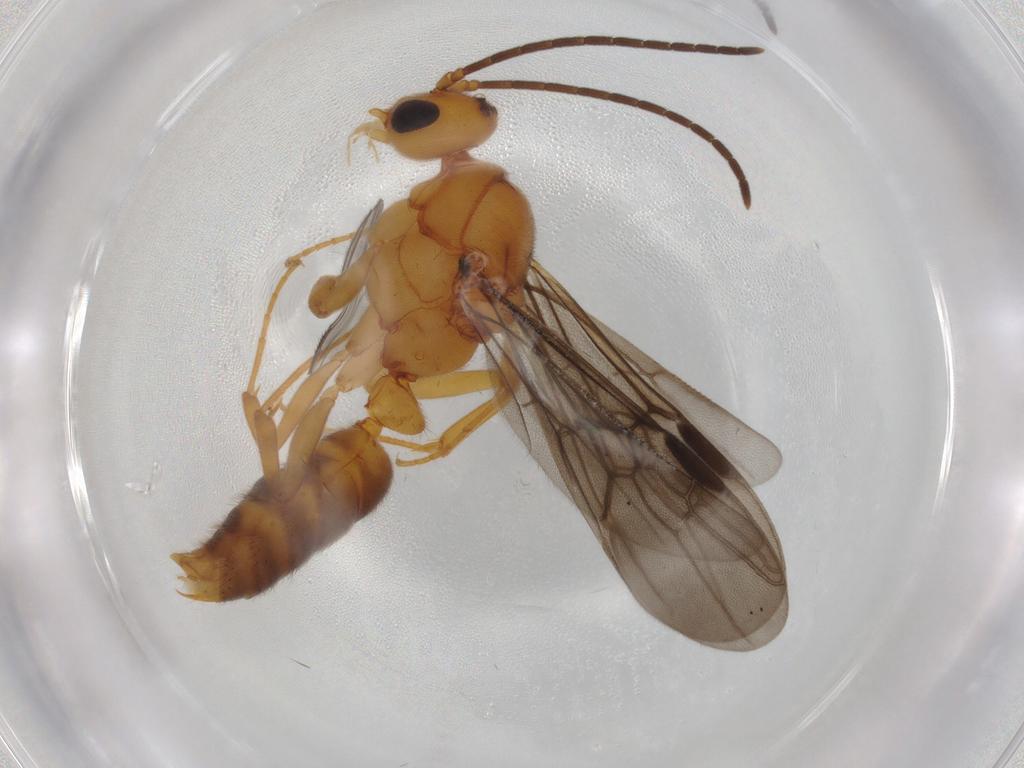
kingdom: Animalia
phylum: Arthropoda
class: Insecta
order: Hymenoptera
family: Formicidae
